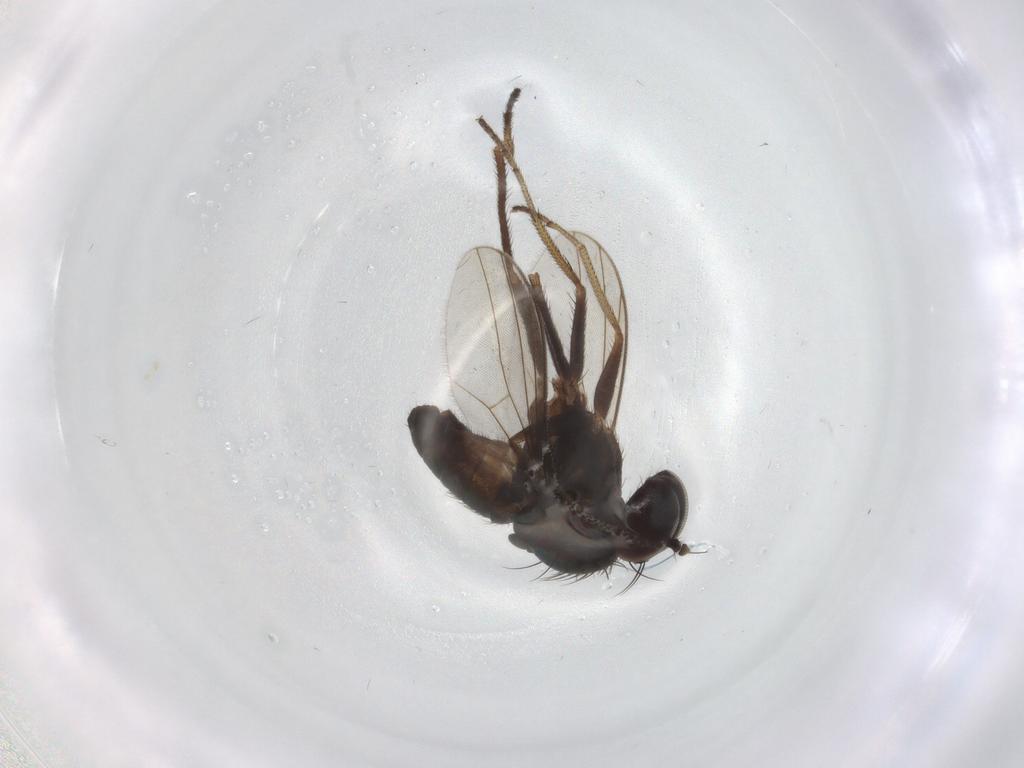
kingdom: Animalia
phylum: Arthropoda
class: Insecta
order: Diptera
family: Dolichopodidae
